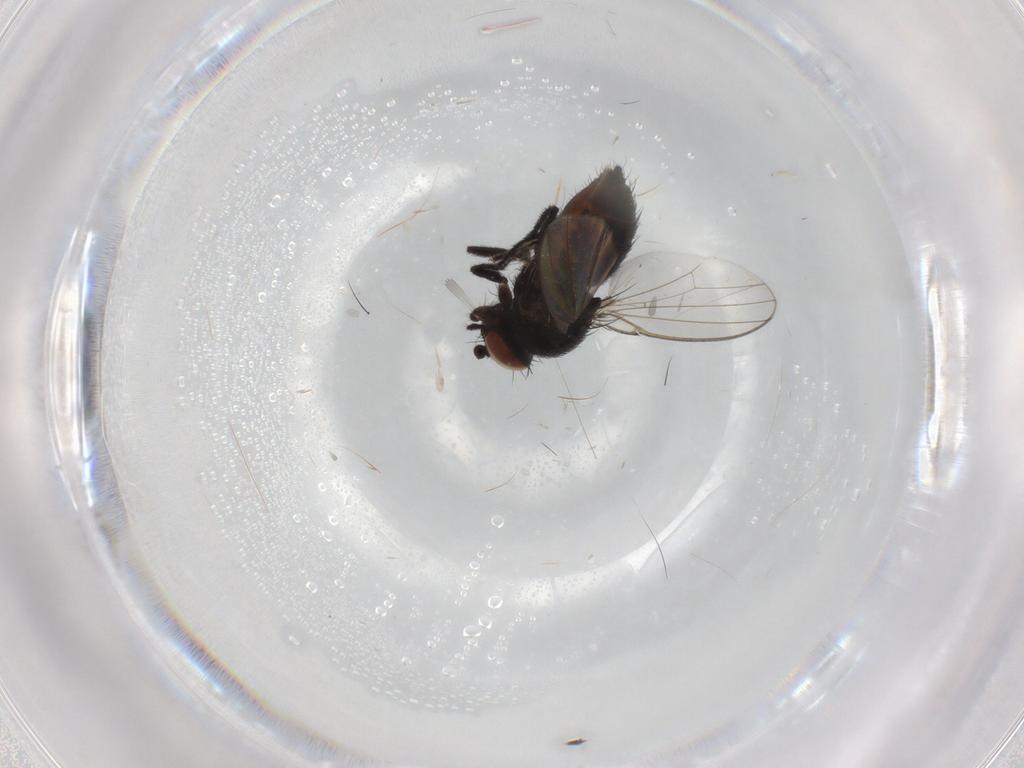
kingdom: Animalia
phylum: Arthropoda
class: Insecta
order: Diptera
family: Milichiidae
